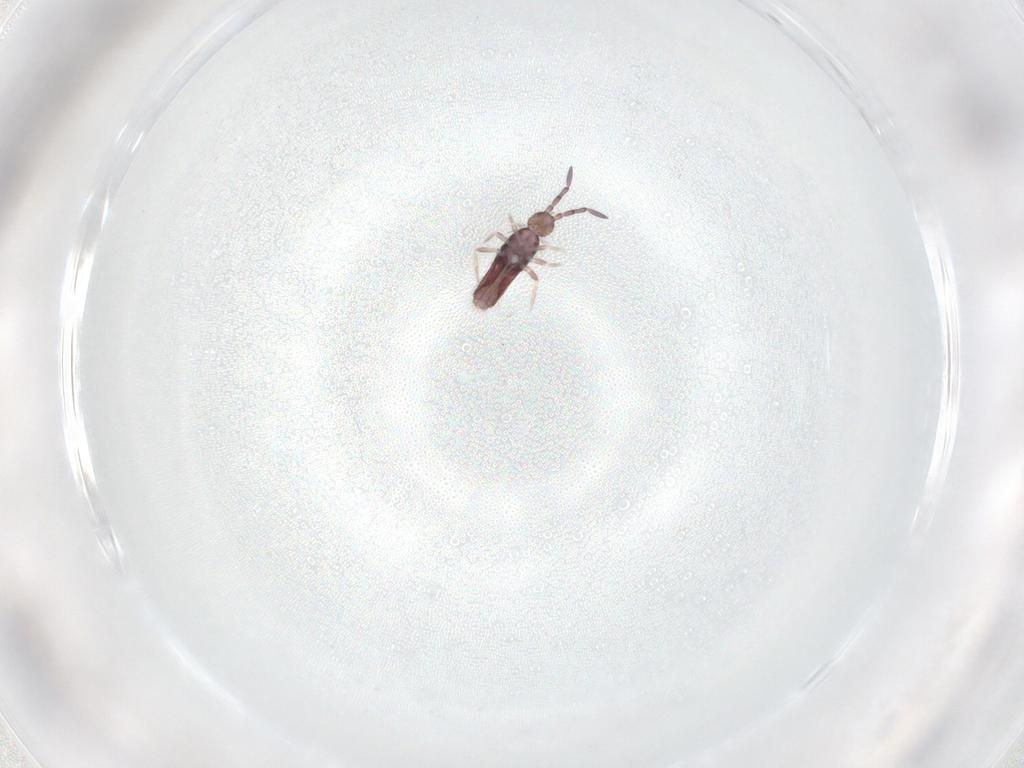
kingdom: Animalia
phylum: Arthropoda
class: Collembola
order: Entomobryomorpha
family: Entomobryidae
